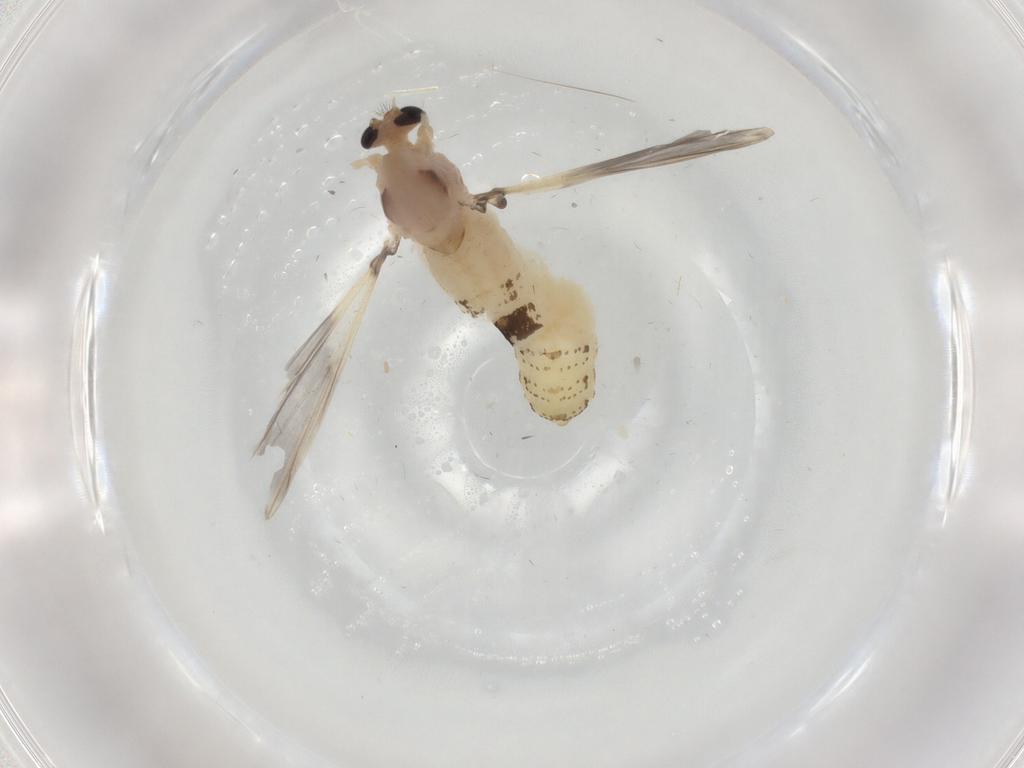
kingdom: Animalia
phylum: Arthropoda
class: Insecta
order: Diptera
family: Chironomidae
